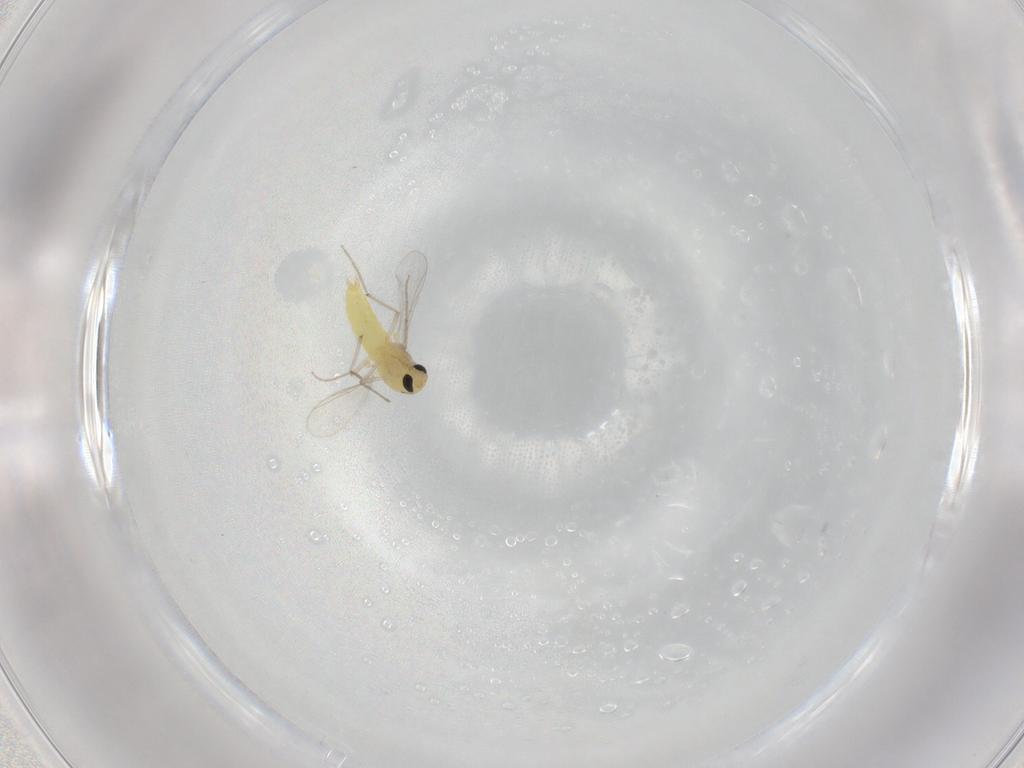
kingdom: Animalia
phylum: Arthropoda
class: Insecta
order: Diptera
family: Chironomidae
